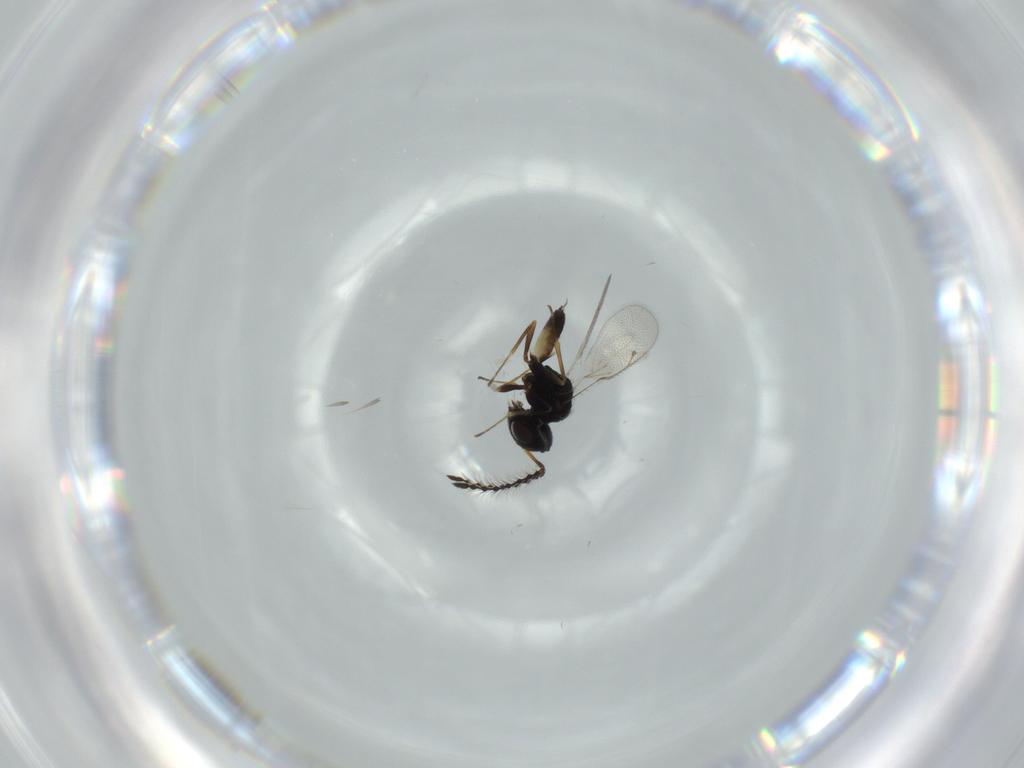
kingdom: Animalia
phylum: Arthropoda
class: Insecta
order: Hymenoptera
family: Pteromalidae
